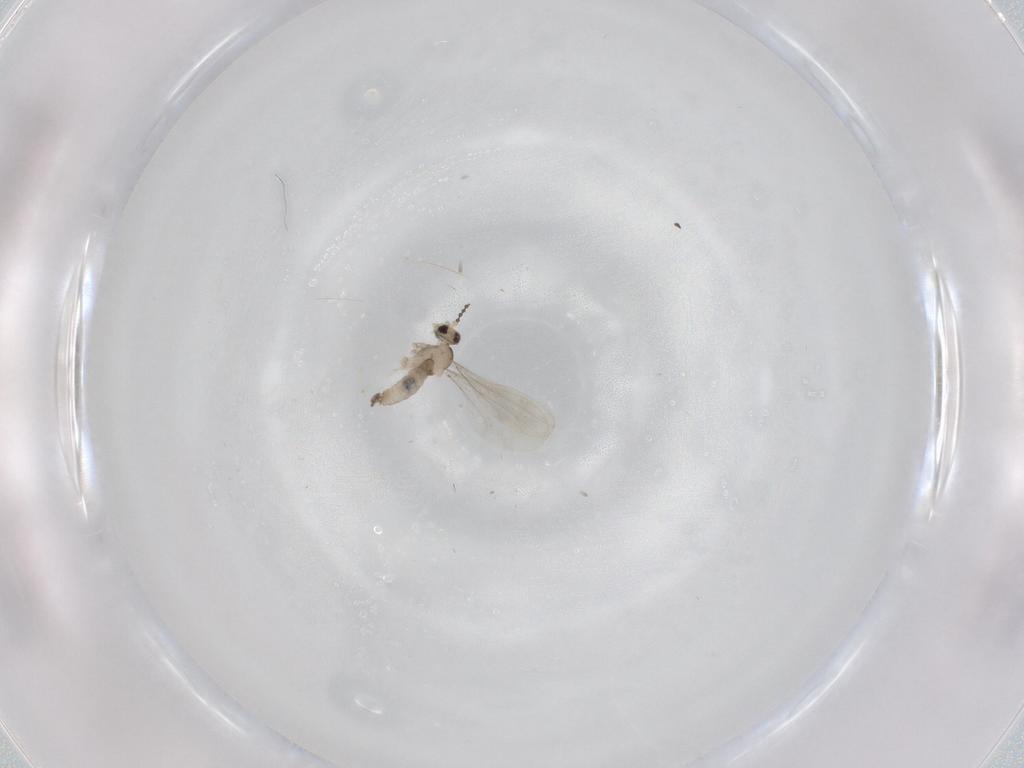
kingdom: Animalia
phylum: Arthropoda
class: Insecta
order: Diptera
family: Cecidomyiidae
